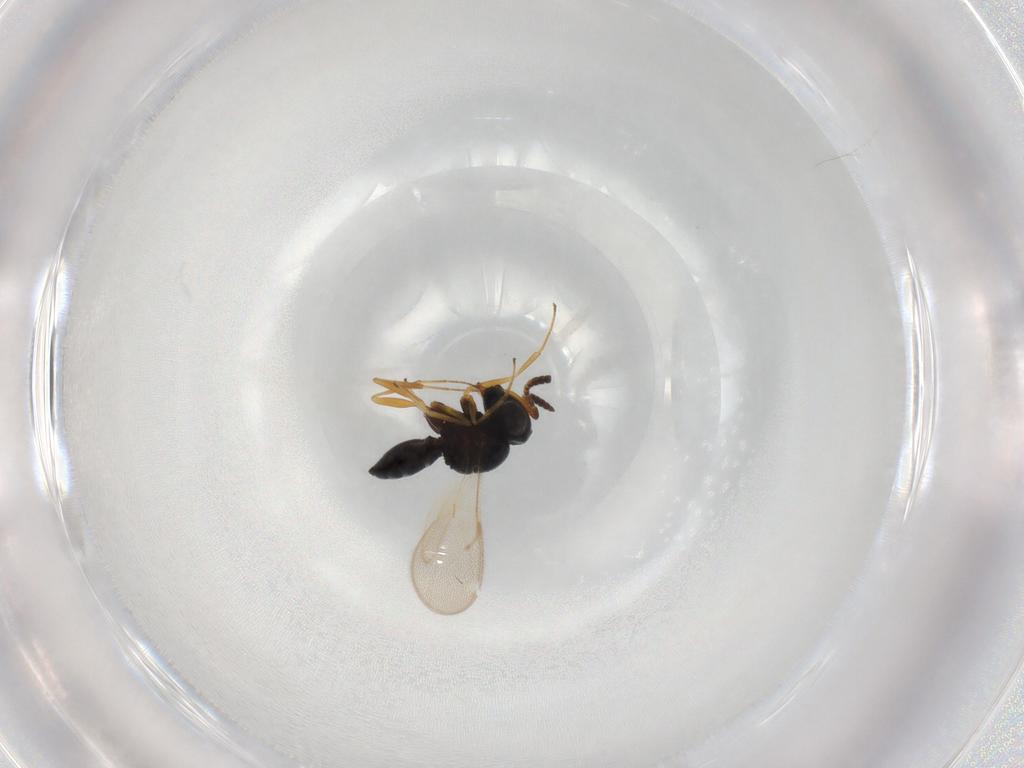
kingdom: Animalia
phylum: Arthropoda
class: Insecta
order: Hymenoptera
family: Scelionidae
